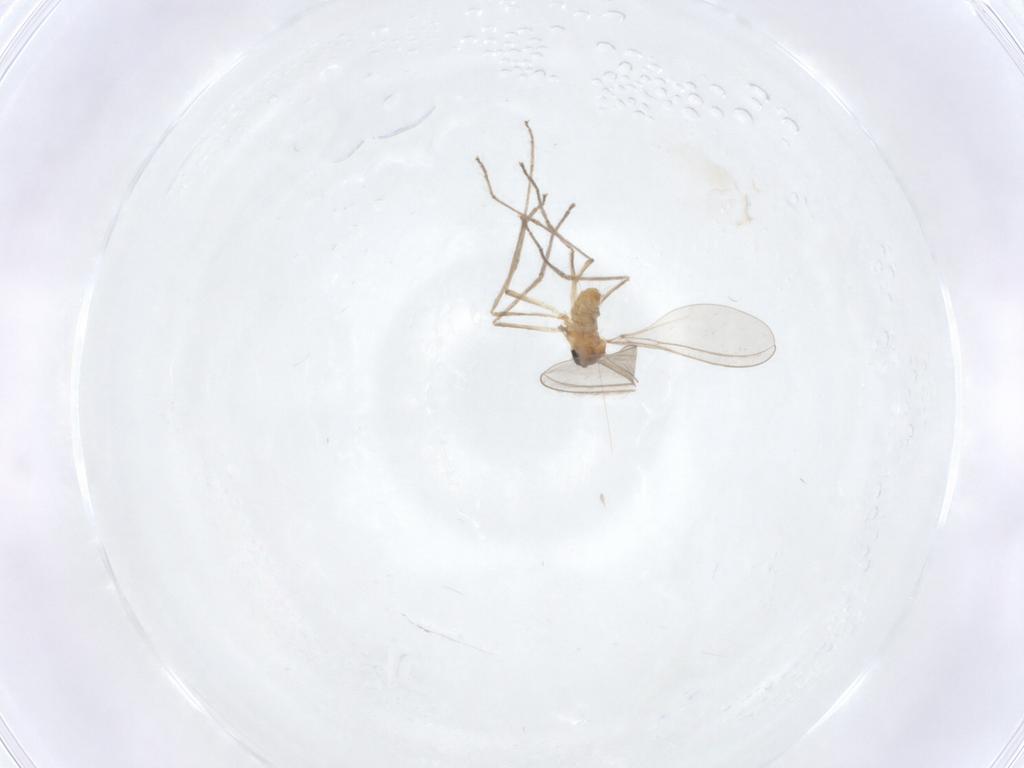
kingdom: Animalia
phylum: Arthropoda
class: Insecta
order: Diptera
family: Cecidomyiidae
